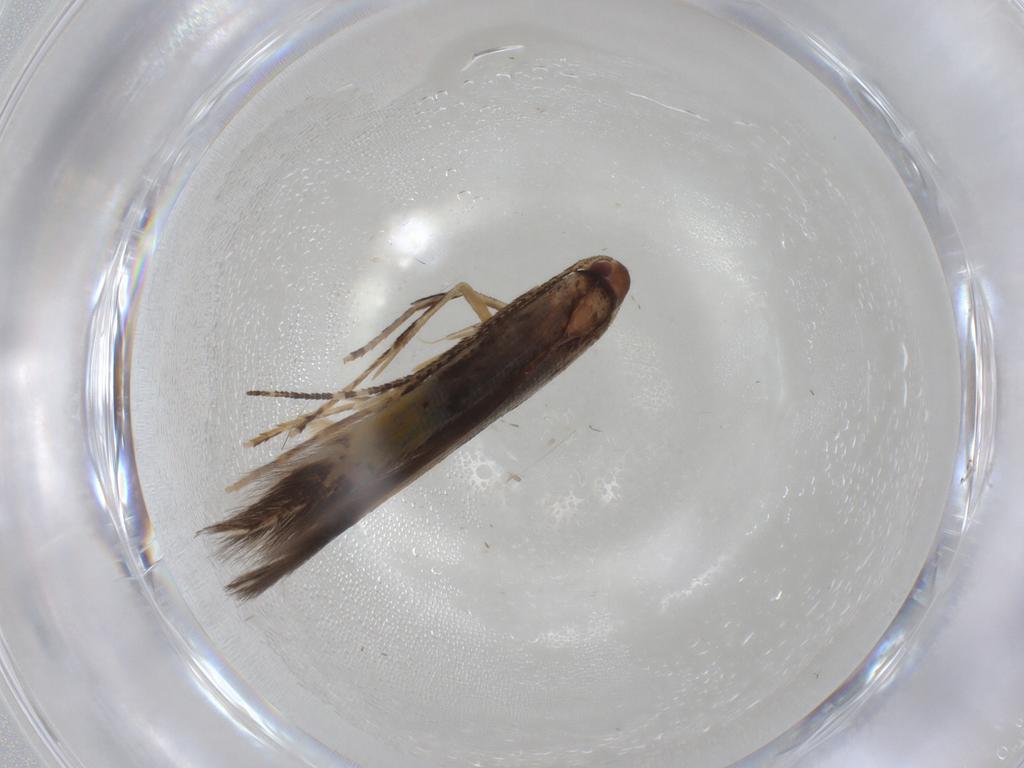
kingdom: Animalia
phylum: Arthropoda
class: Insecta
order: Lepidoptera
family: Cosmopterigidae
